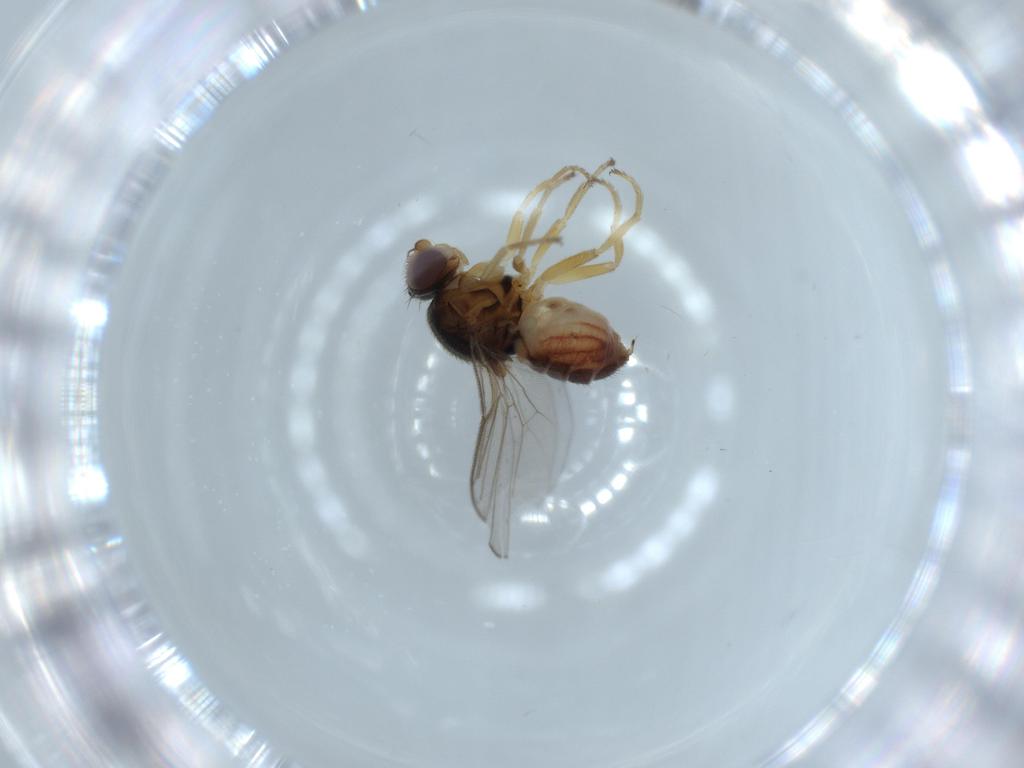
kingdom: Animalia
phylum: Arthropoda
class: Insecta
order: Diptera
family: Chloropidae
